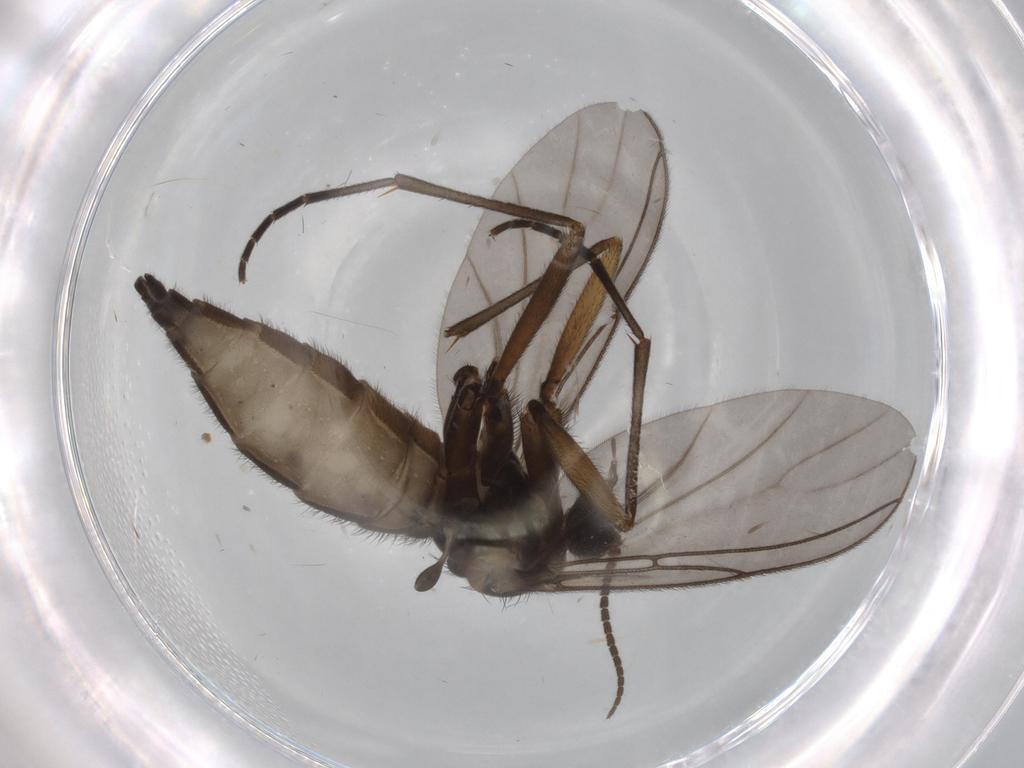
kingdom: Animalia
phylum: Arthropoda
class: Insecta
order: Diptera
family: Sciaridae
